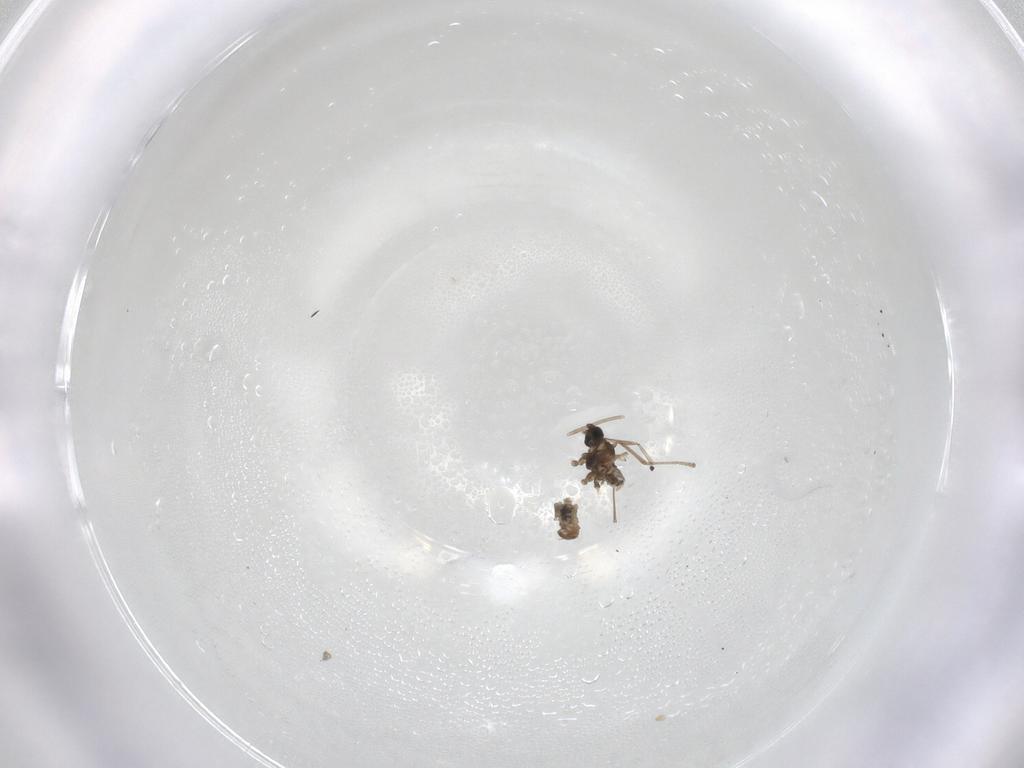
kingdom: Animalia
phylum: Arthropoda
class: Insecta
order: Diptera
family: Cecidomyiidae
